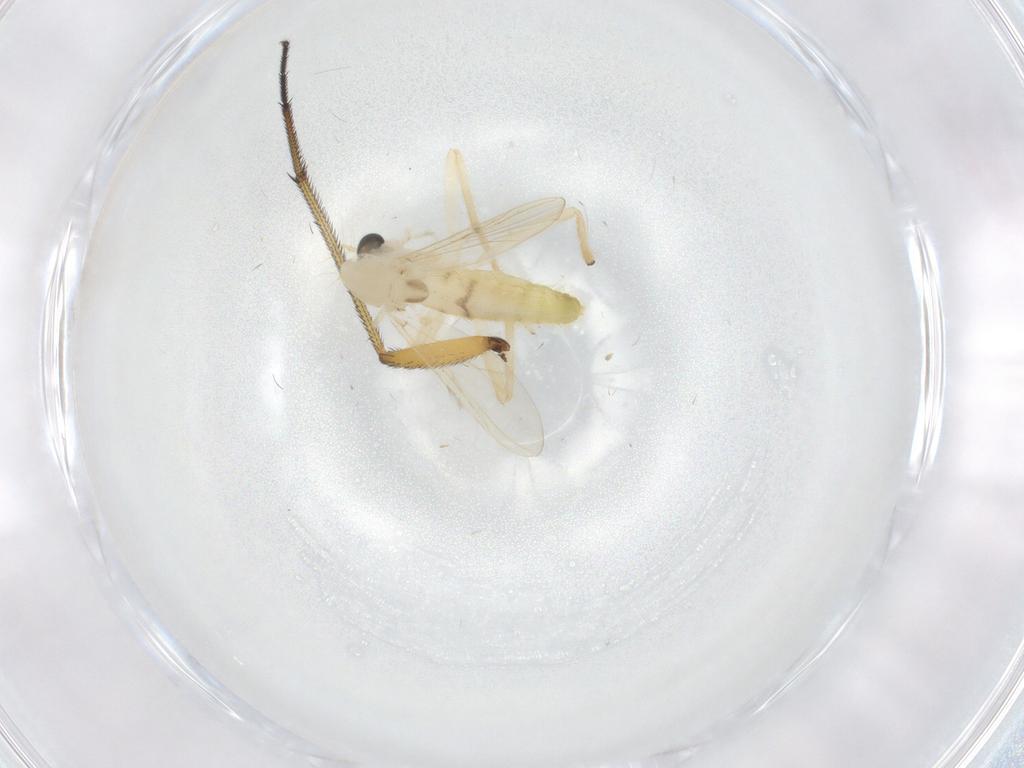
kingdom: Animalia
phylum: Arthropoda
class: Insecta
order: Diptera
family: Chironomidae
